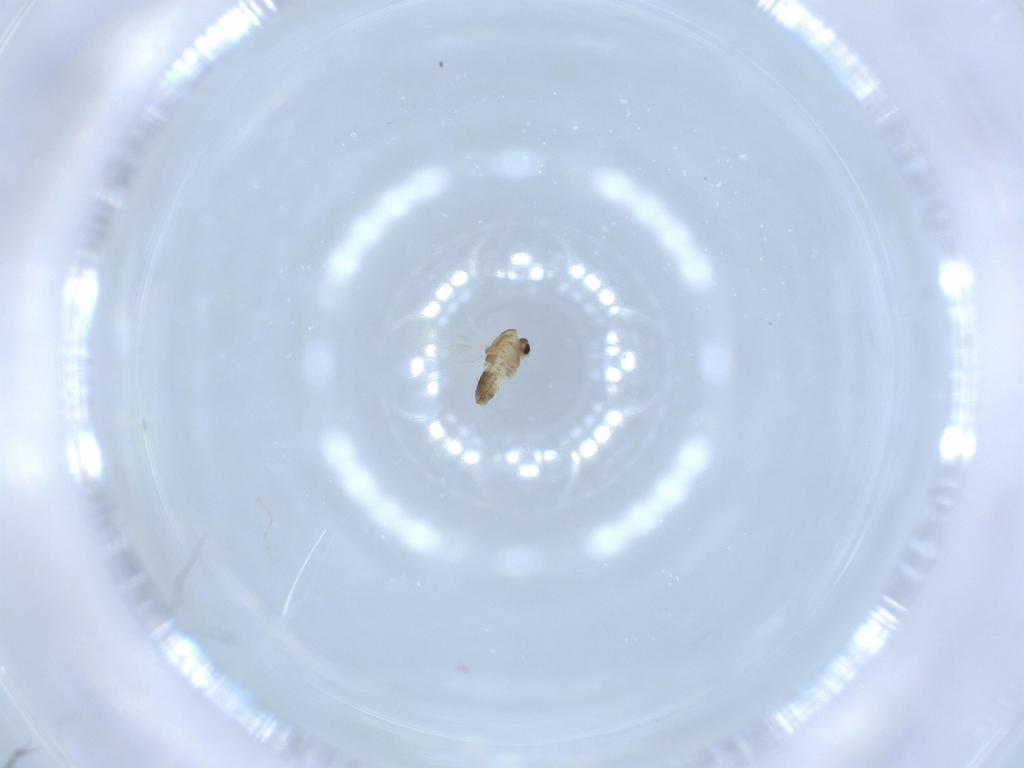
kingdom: Animalia
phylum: Arthropoda
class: Insecta
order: Diptera
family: Chironomidae
